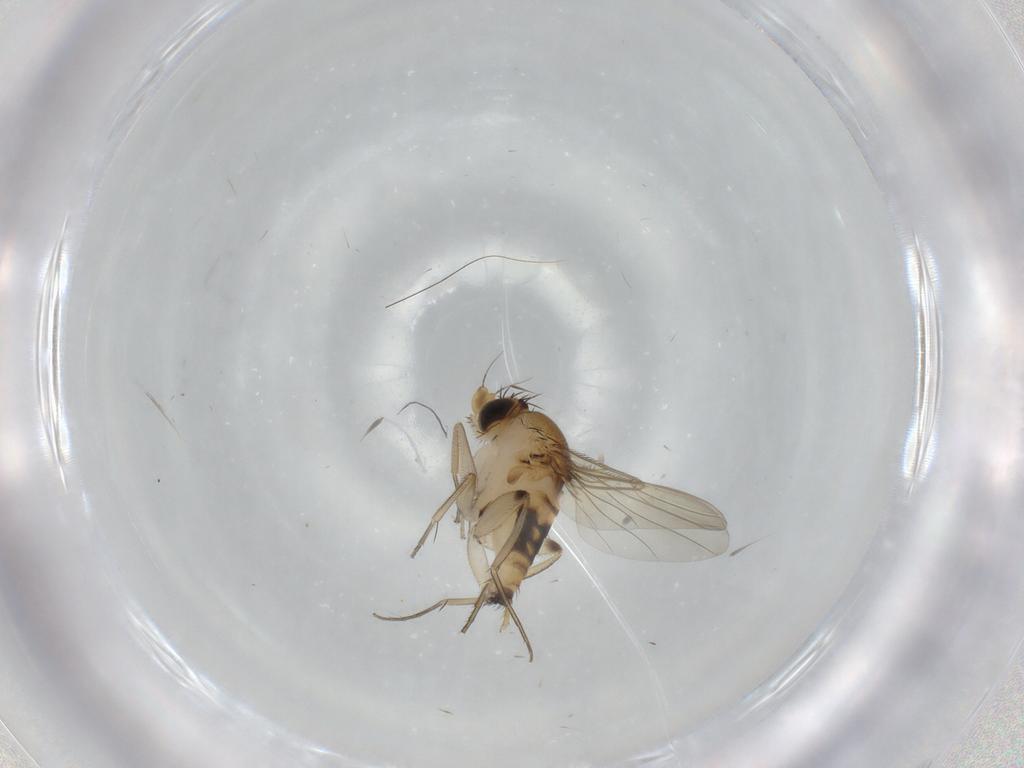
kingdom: Animalia
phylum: Arthropoda
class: Insecta
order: Diptera
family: Phoridae
